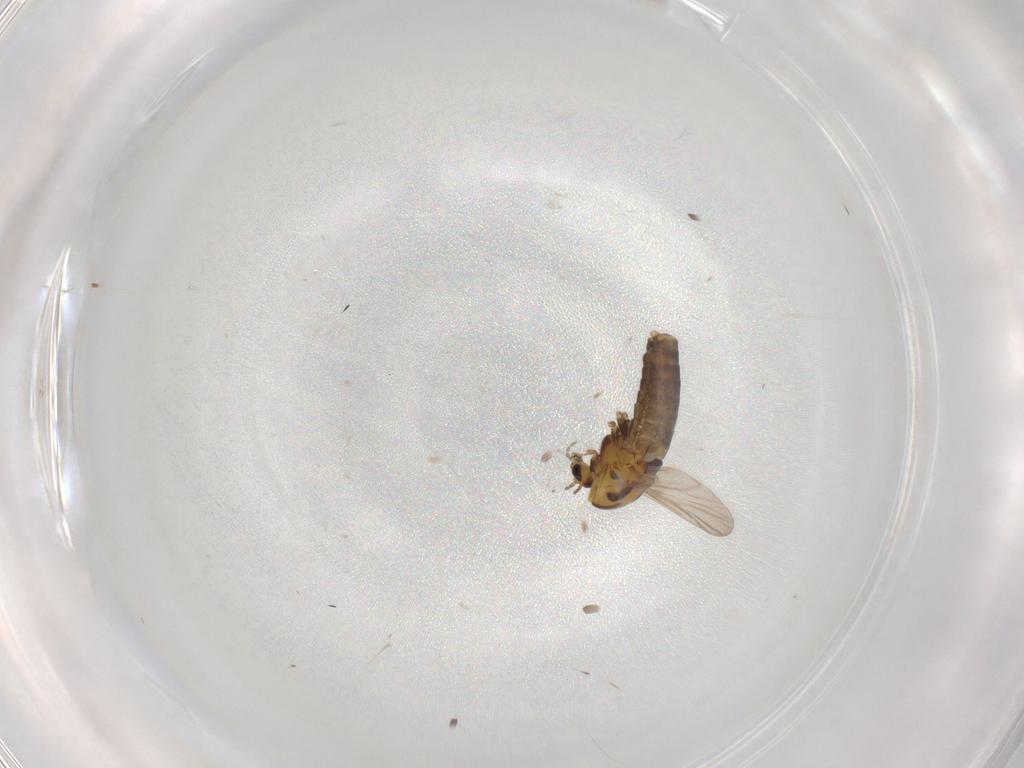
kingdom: Animalia
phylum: Arthropoda
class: Insecta
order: Diptera
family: Chironomidae
